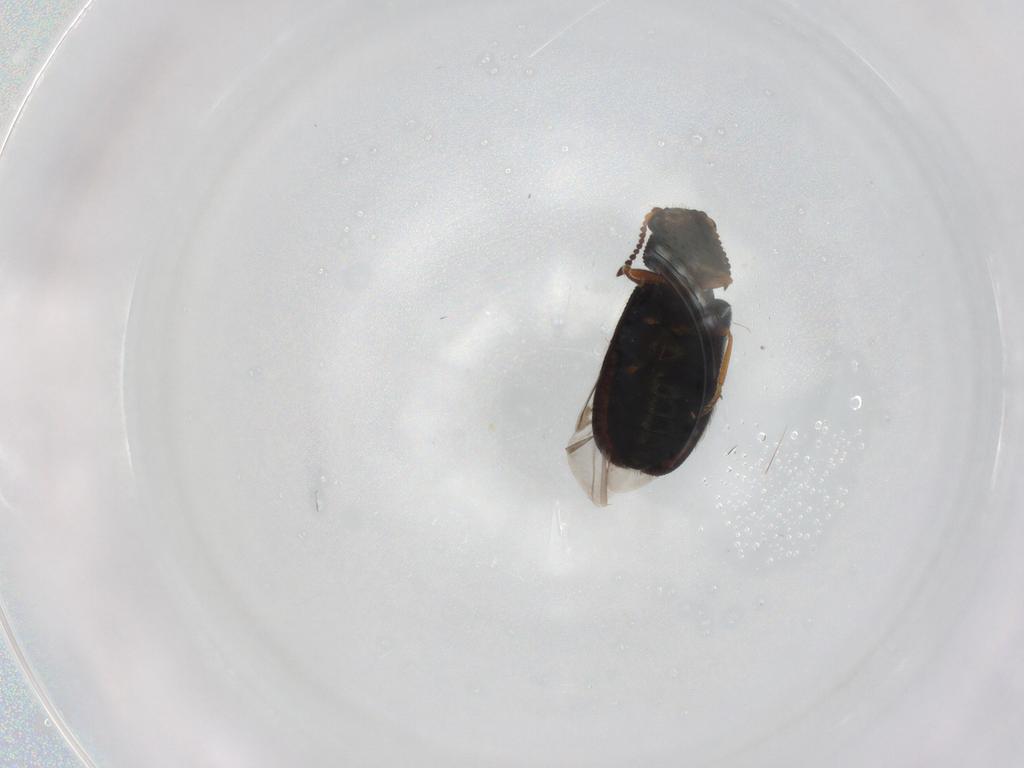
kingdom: Animalia
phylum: Arthropoda
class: Insecta
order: Coleoptera
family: Melyridae
